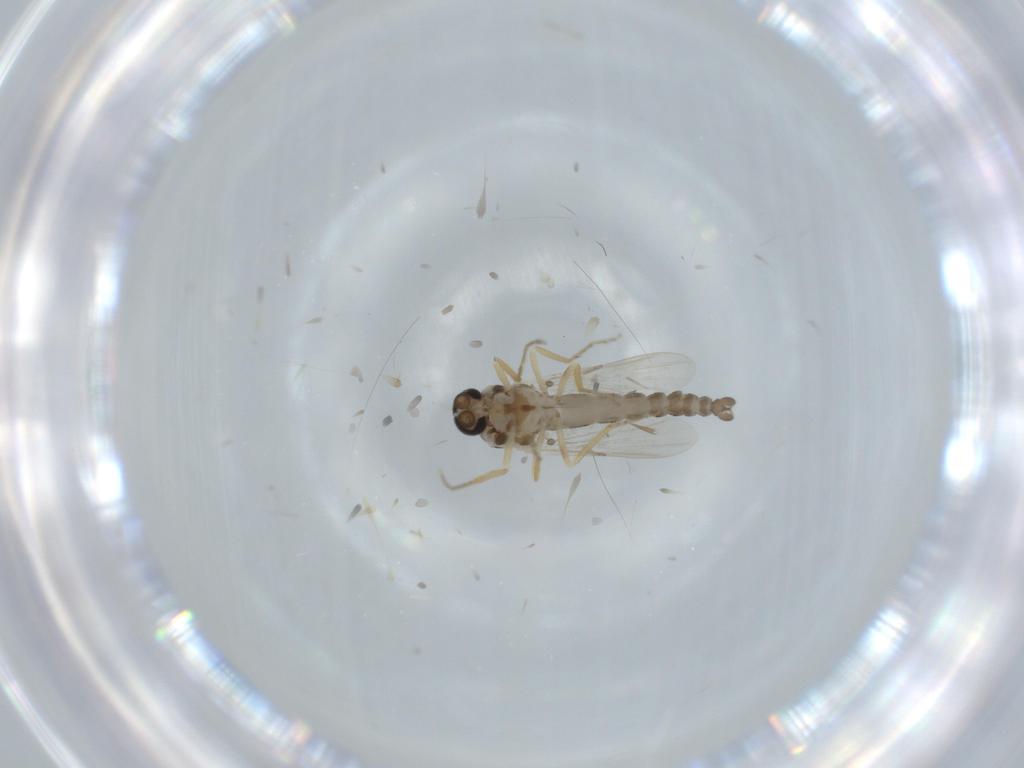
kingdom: Animalia
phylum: Arthropoda
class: Insecta
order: Diptera
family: Ceratopogonidae
